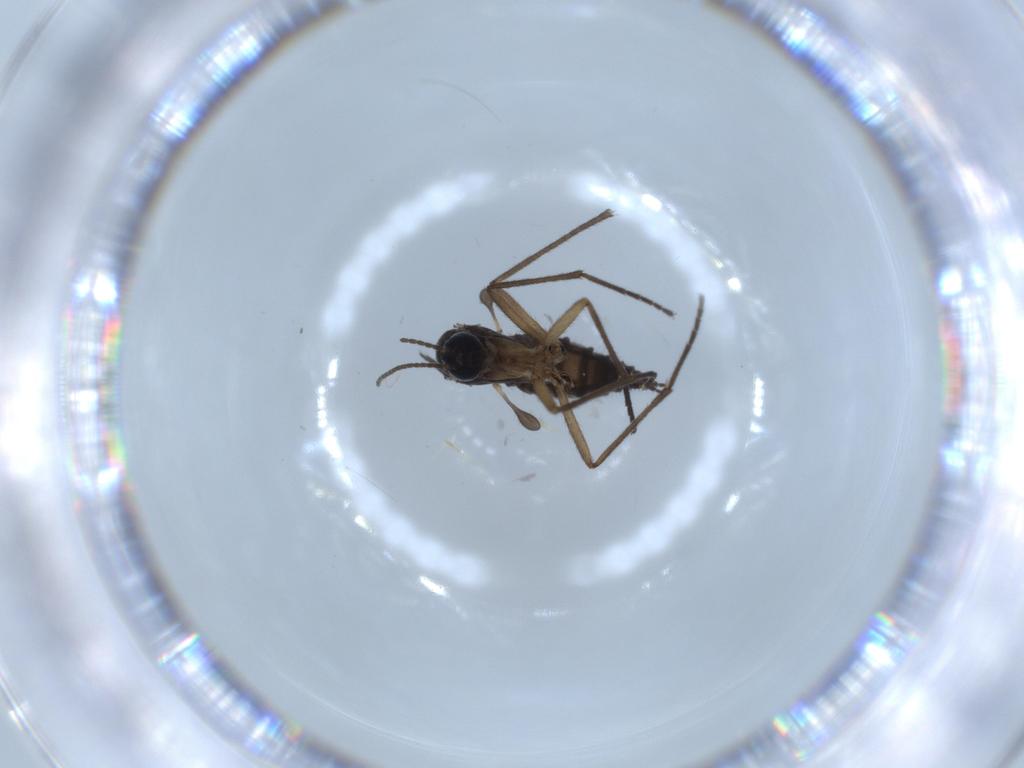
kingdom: Animalia
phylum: Arthropoda
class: Insecta
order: Diptera
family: Sciaridae
